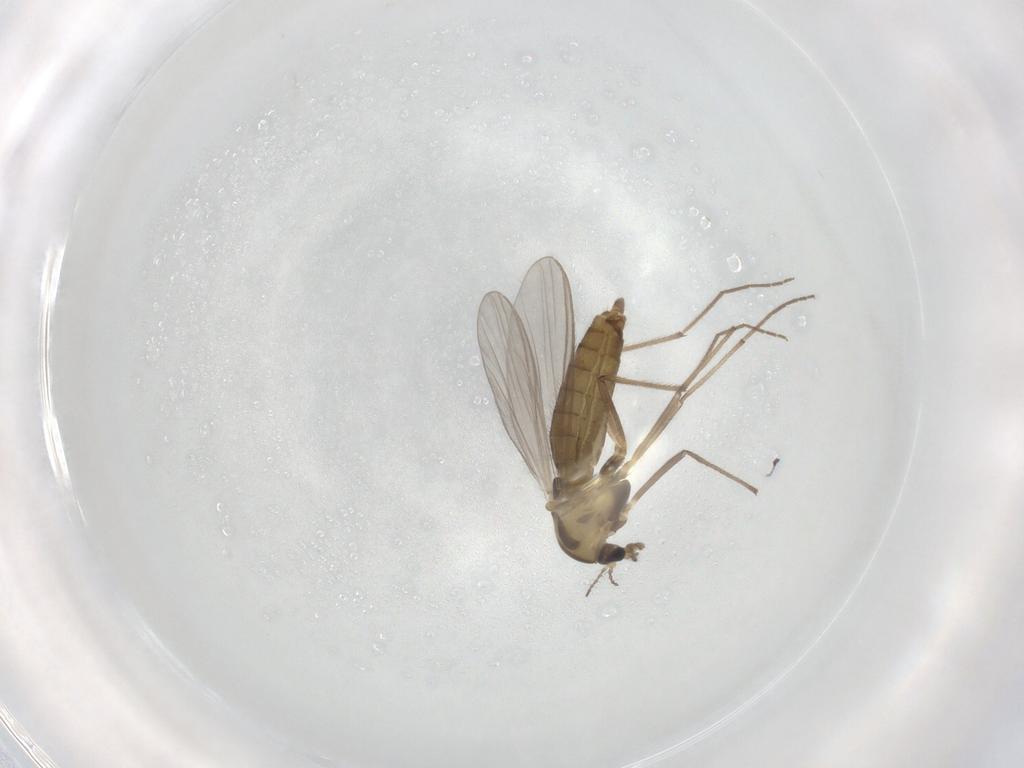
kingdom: Animalia
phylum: Arthropoda
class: Insecta
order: Diptera
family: Chironomidae
